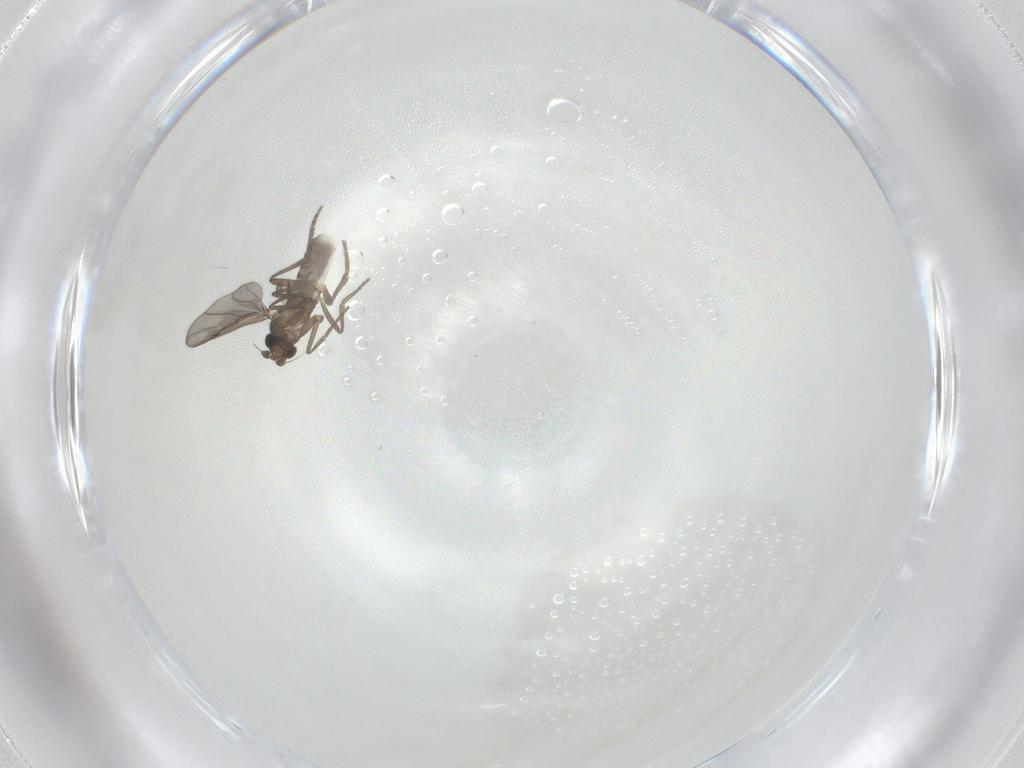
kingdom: Animalia
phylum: Arthropoda
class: Insecta
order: Diptera
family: Phoridae
